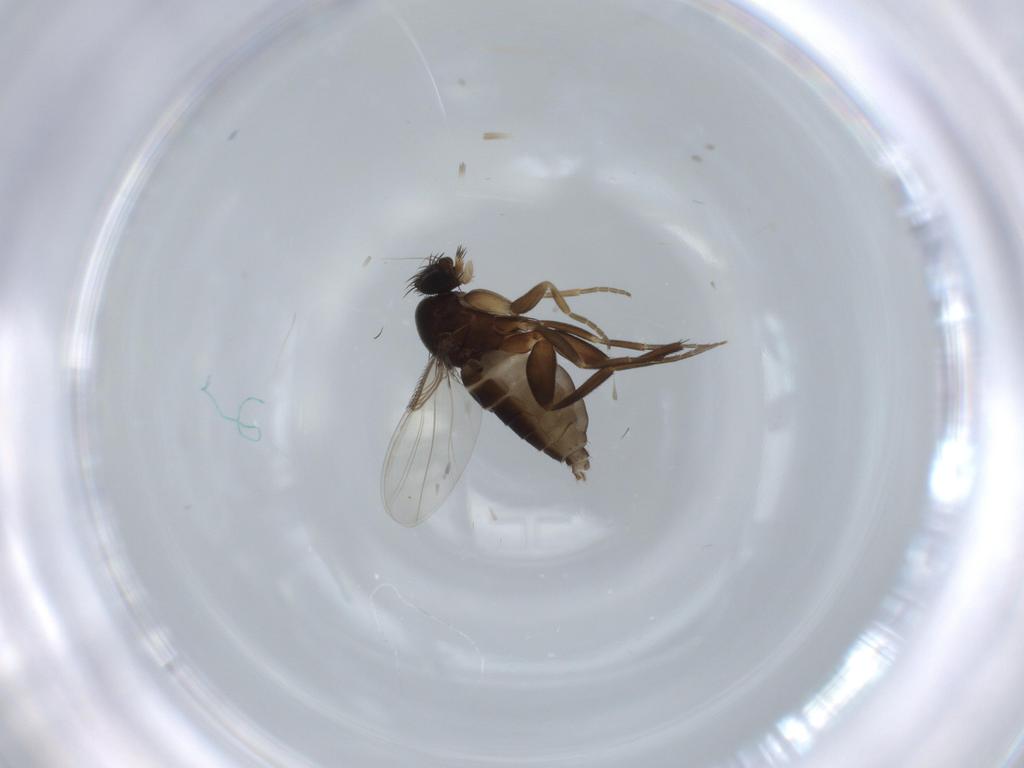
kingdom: Animalia
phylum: Arthropoda
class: Insecta
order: Diptera
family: Phoridae
